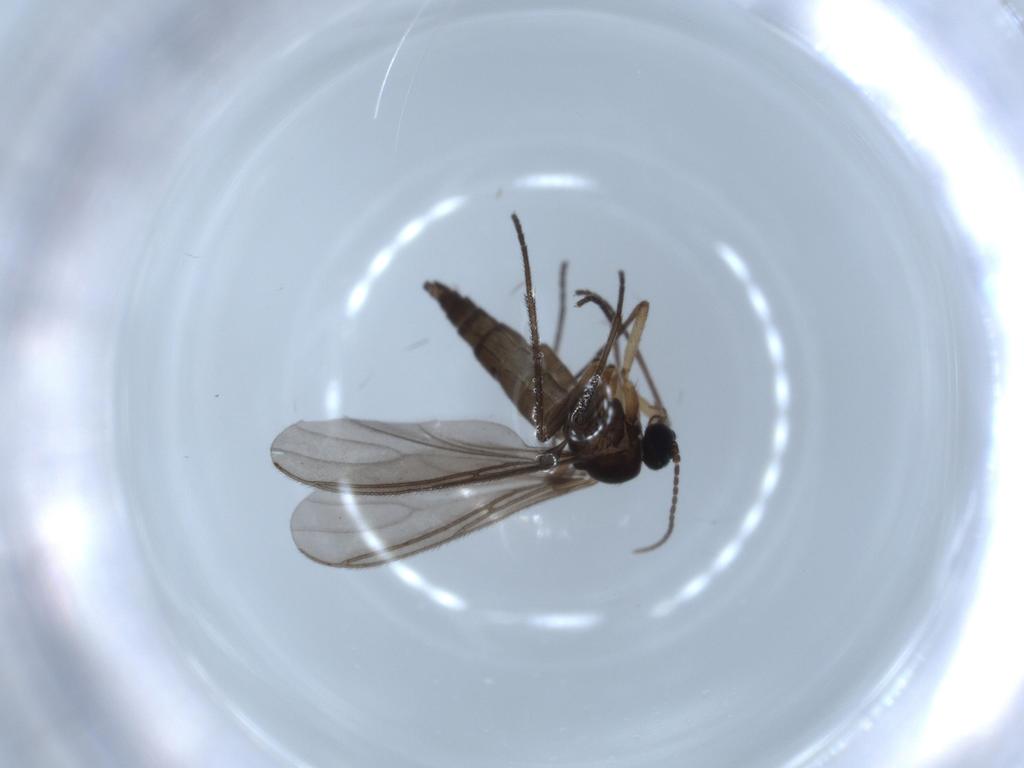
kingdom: Animalia
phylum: Arthropoda
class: Insecta
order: Diptera
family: Sciaridae
